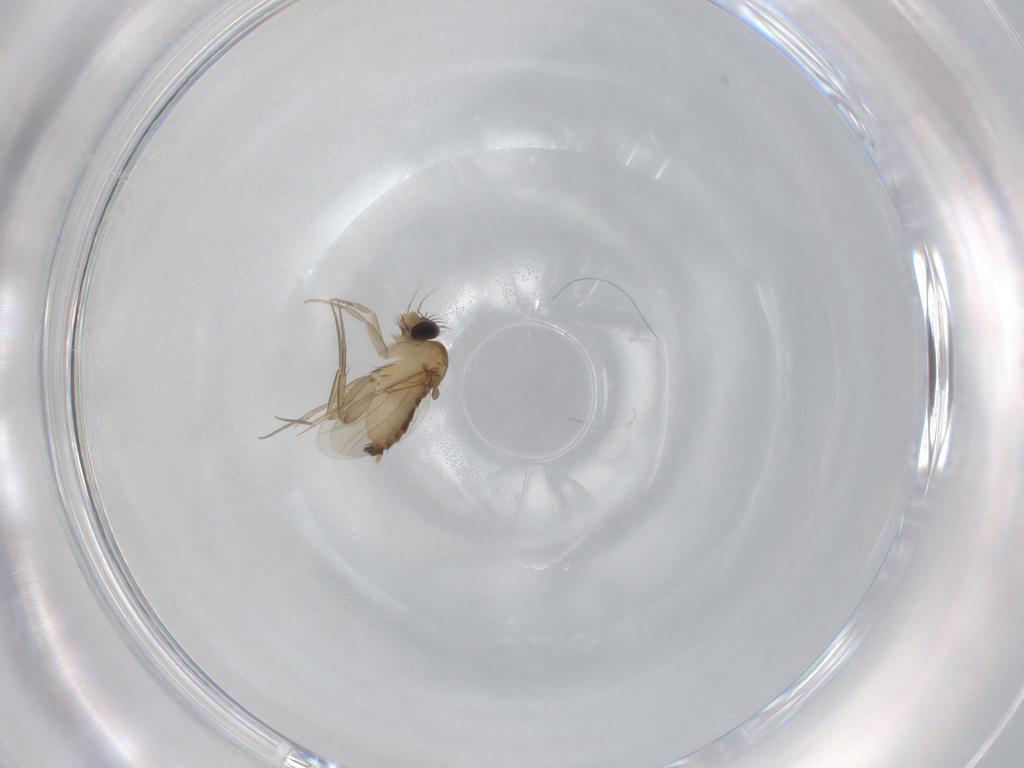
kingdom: Animalia
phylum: Arthropoda
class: Insecta
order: Diptera
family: Phoridae
